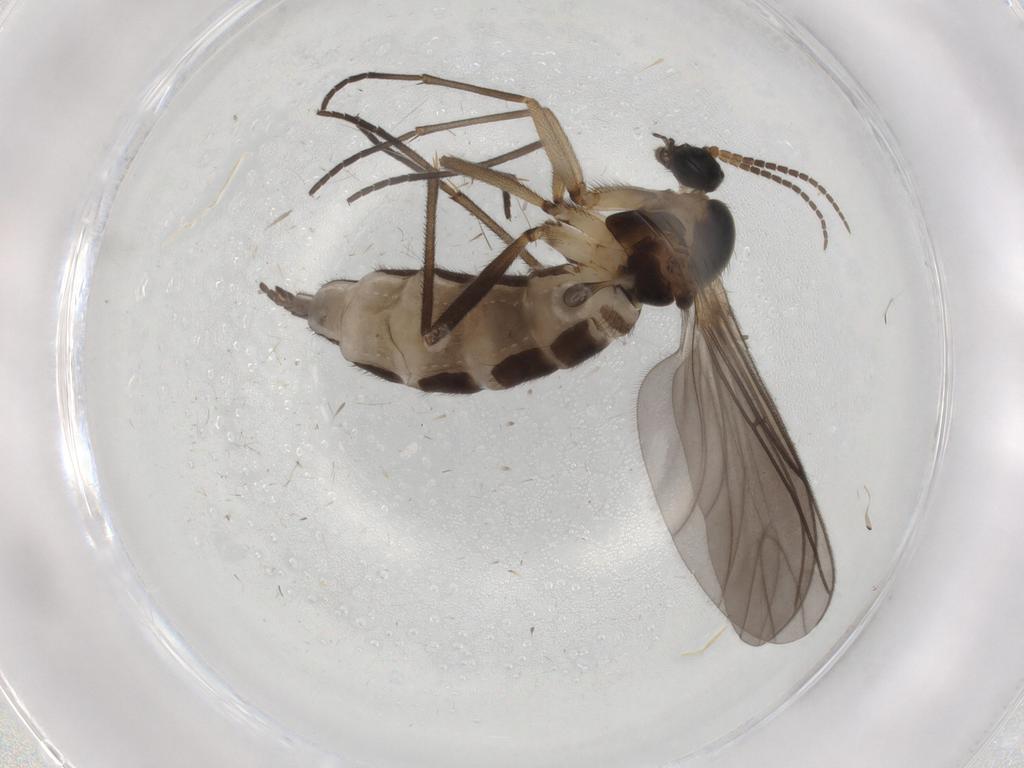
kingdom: Animalia
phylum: Arthropoda
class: Insecta
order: Diptera
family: Sciaridae
